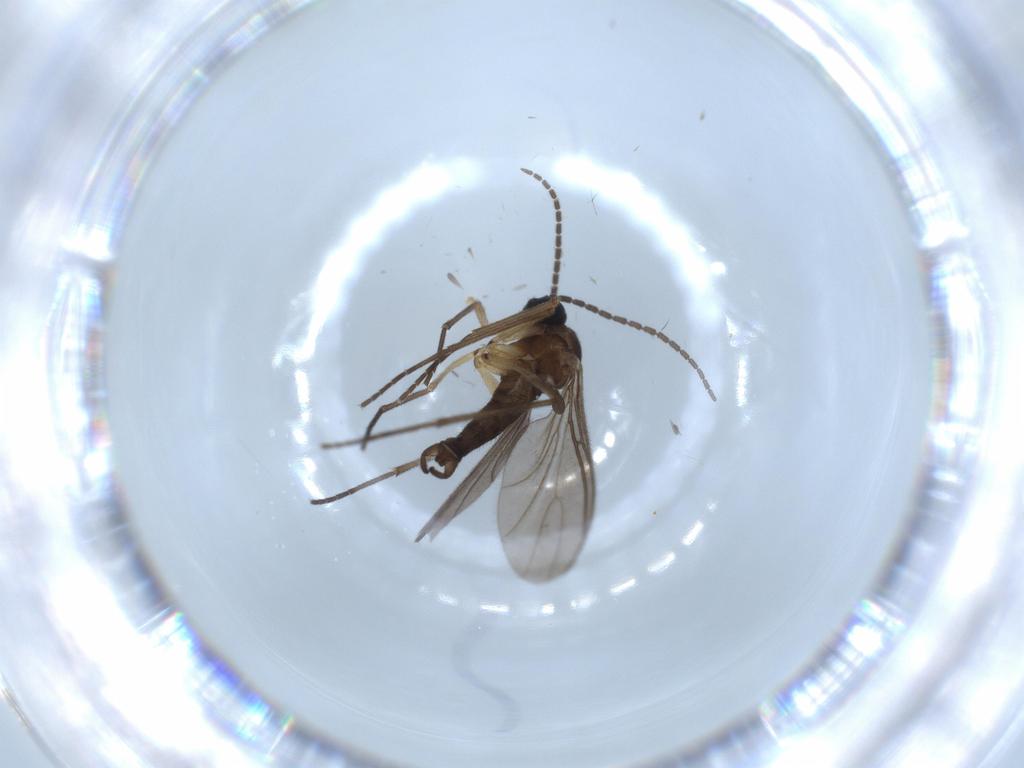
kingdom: Animalia
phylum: Arthropoda
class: Insecta
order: Diptera
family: Sciaridae
